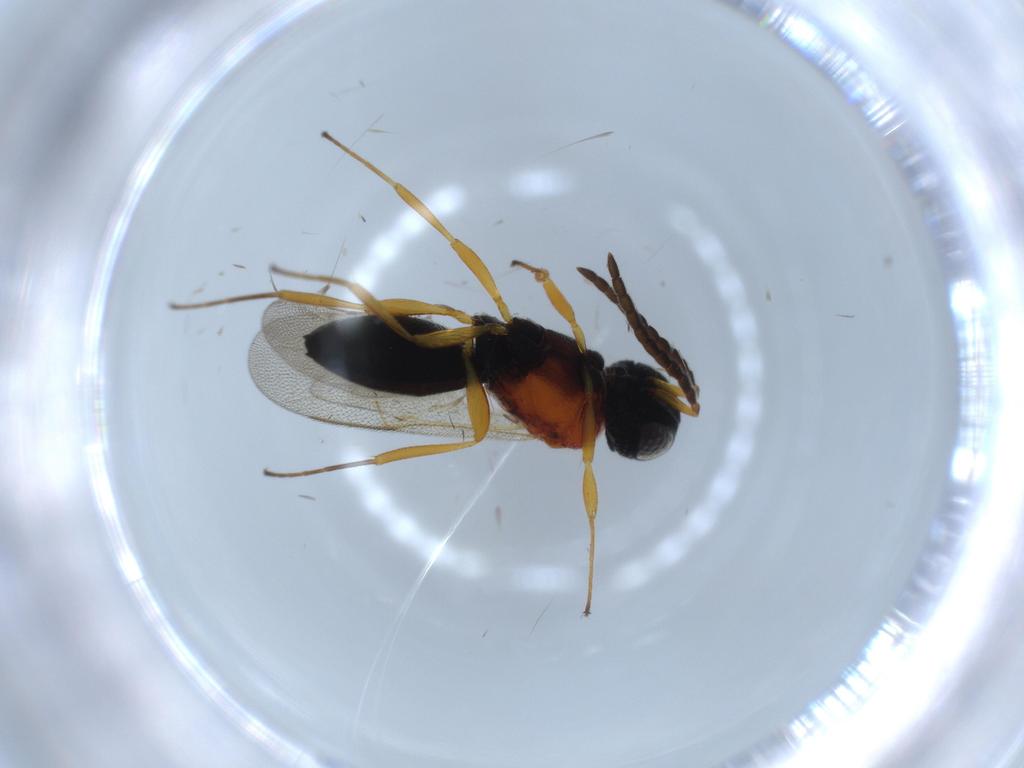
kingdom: Animalia
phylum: Arthropoda
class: Insecta
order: Hymenoptera
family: Scelionidae
